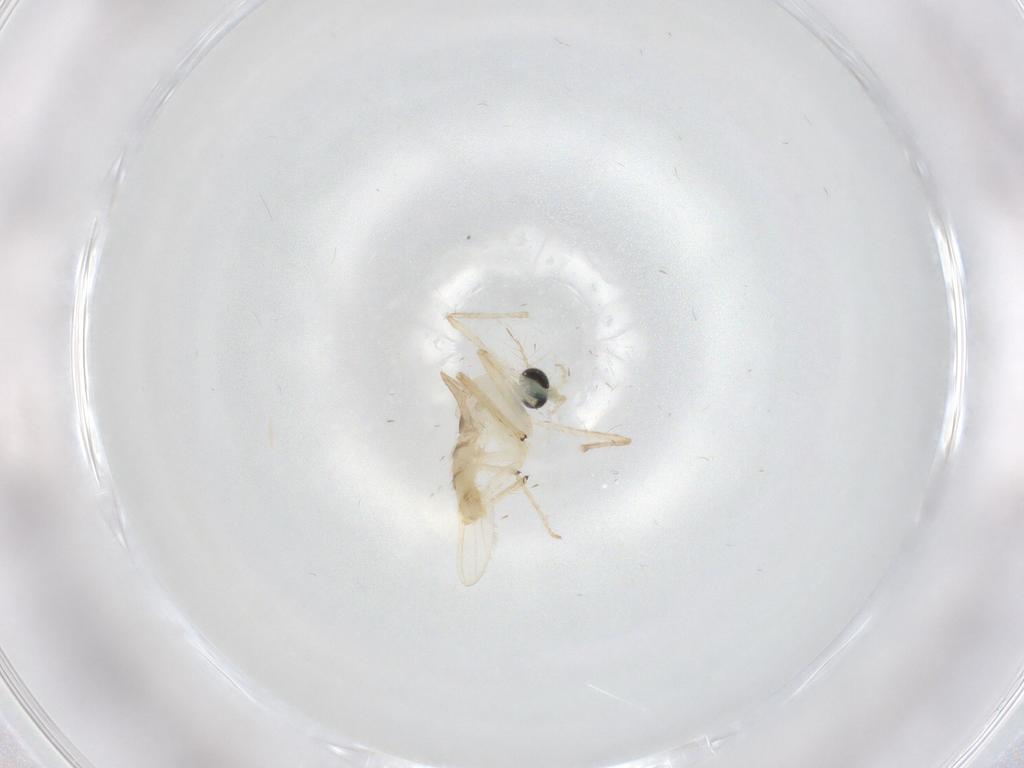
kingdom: Animalia
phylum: Arthropoda
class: Insecta
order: Diptera
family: Chironomidae
